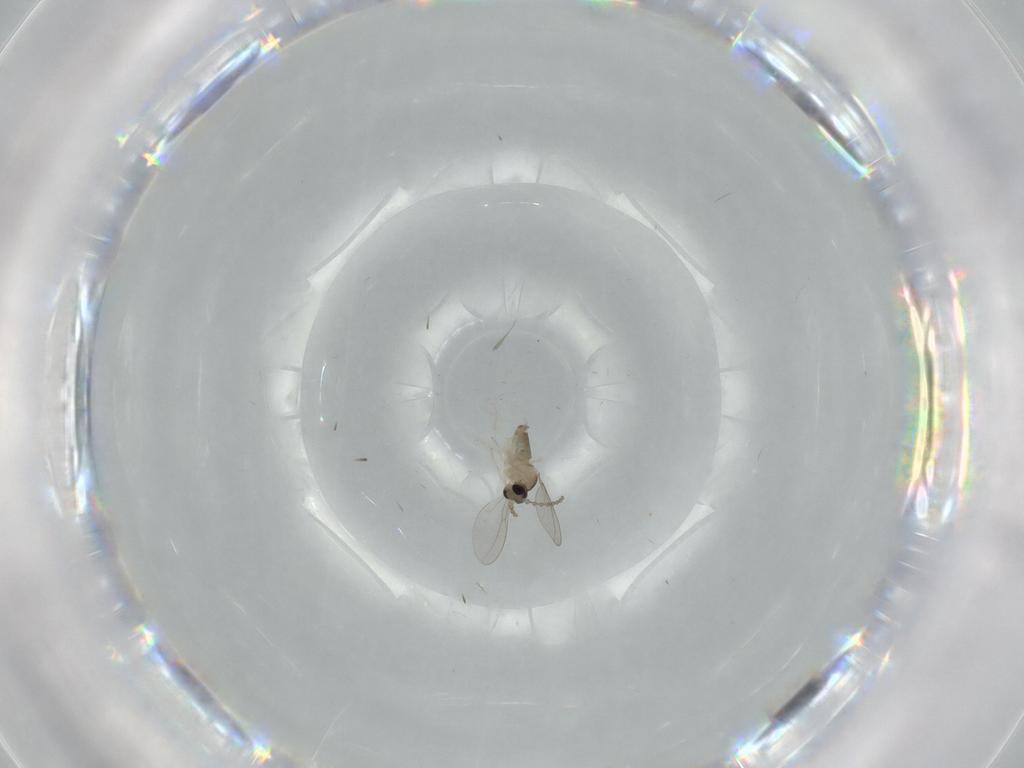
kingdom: Animalia
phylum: Arthropoda
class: Insecta
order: Diptera
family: Cecidomyiidae
